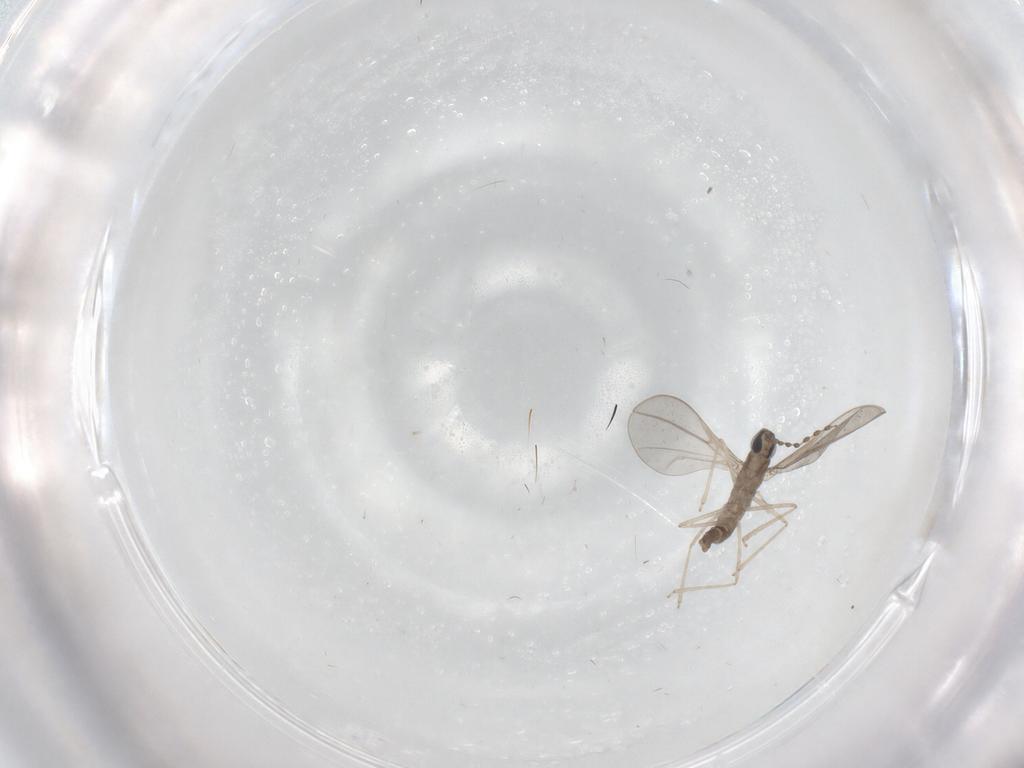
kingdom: Animalia
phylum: Arthropoda
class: Insecta
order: Diptera
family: Cecidomyiidae
